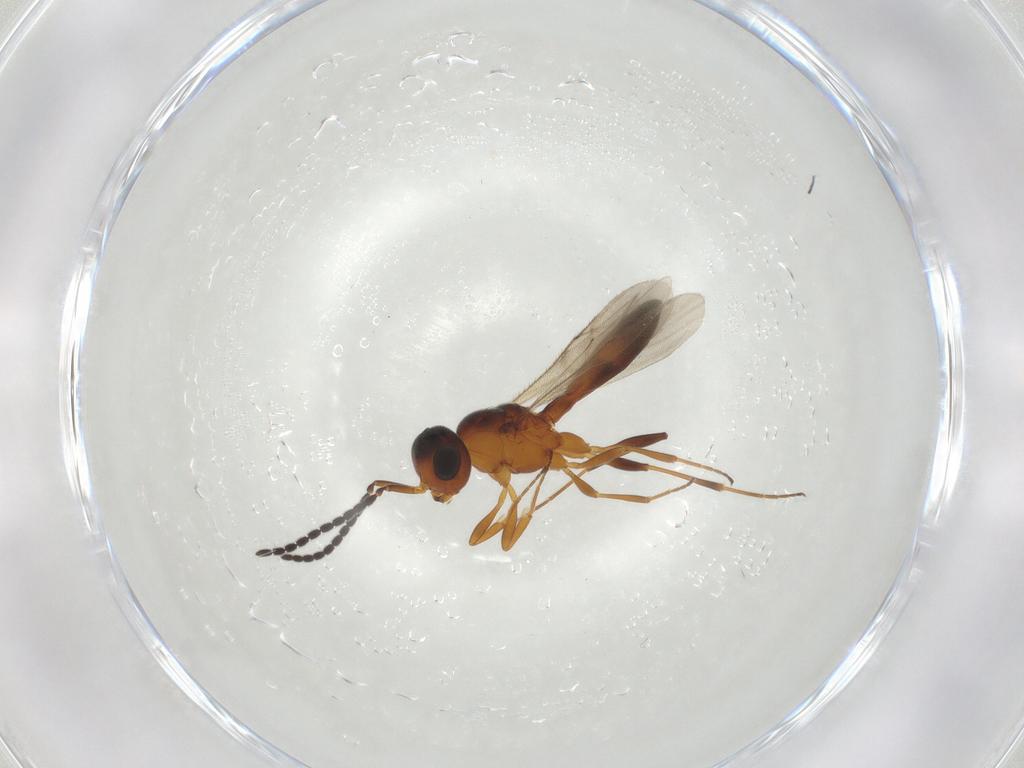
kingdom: Animalia
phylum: Arthropoda
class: Insecta
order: Hymenoptera
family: Scelionidae
